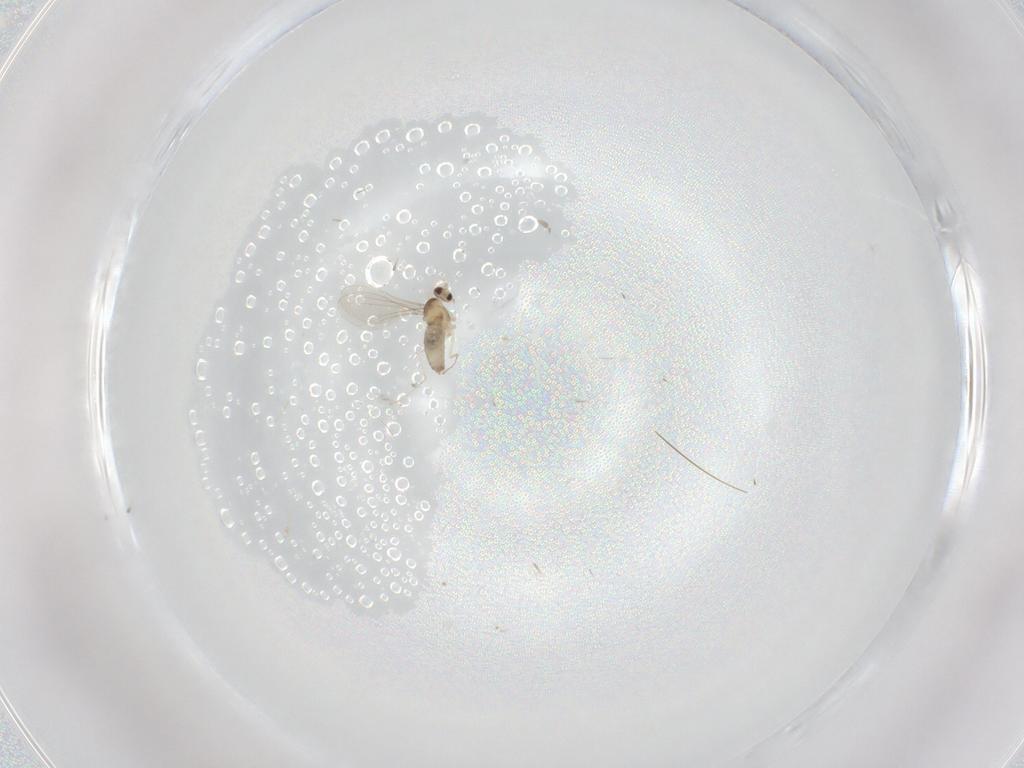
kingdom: Animalia
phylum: Arthropoda
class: Insecta
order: Diptera
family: Cecidomyiidae
